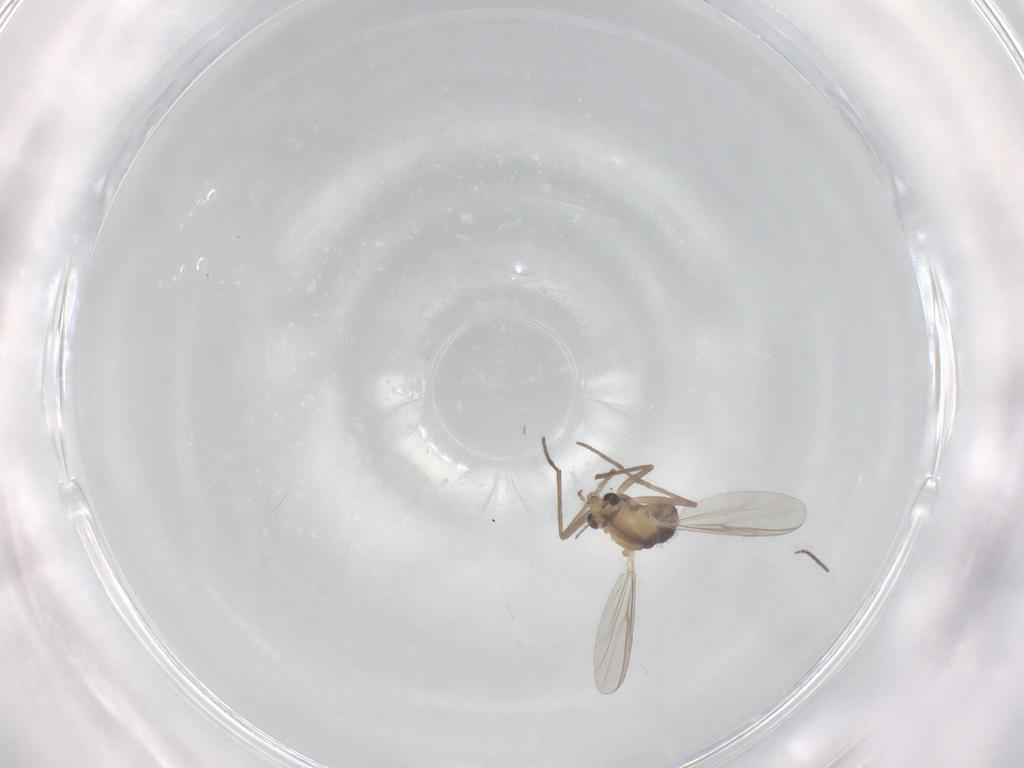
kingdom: Animalia
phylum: Arthropoda
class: Insecta
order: Diptera
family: Chironomidae
